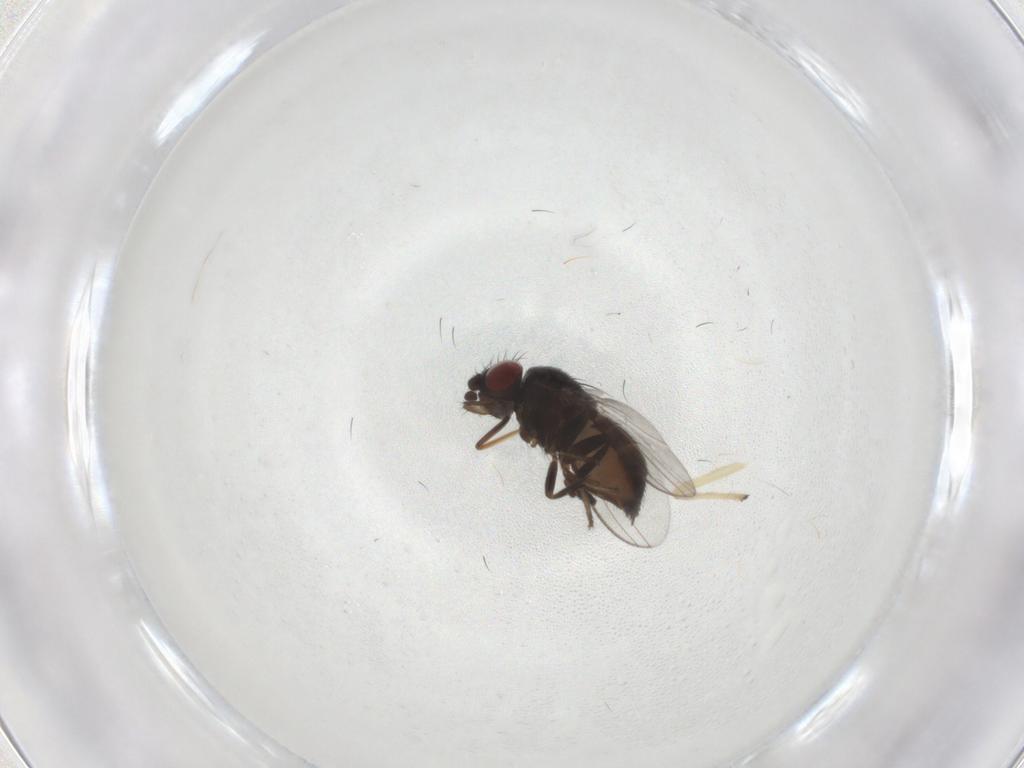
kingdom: Animalia
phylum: Arthropoda
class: Insecta
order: Diptera
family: Milichiidae
